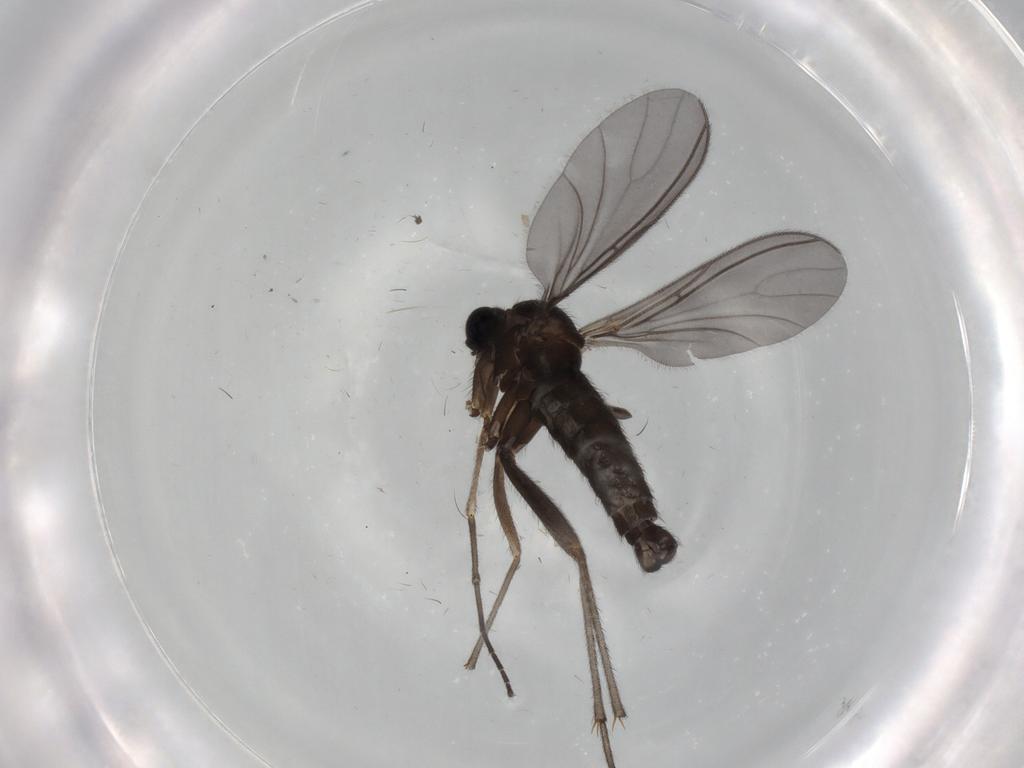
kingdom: Animalia
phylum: Arthropoda
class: Insecta
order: Diptera
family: Sciaridae
